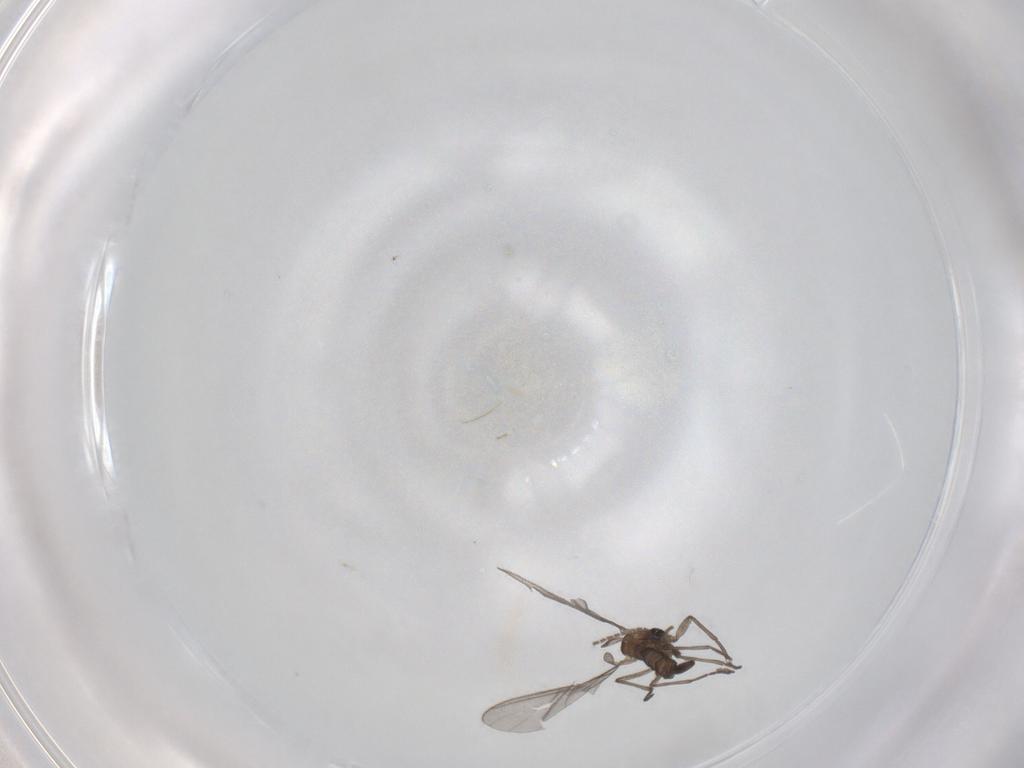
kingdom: Animalia
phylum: Arthropoda
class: Insecta
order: Diptera
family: Sciaridae
